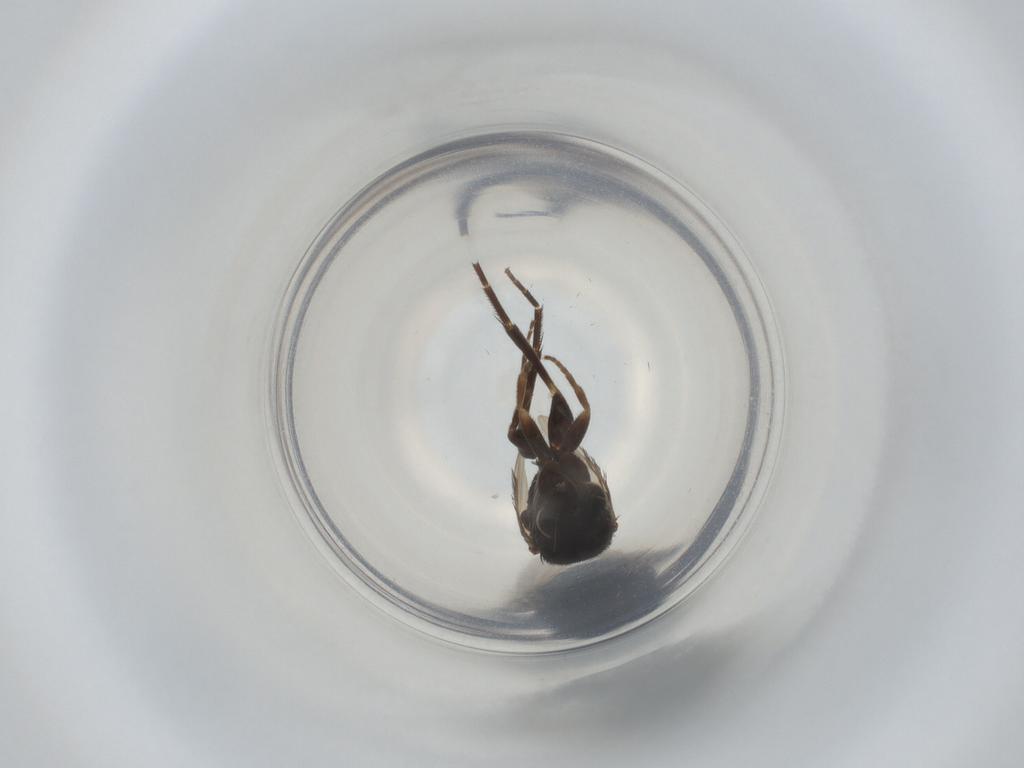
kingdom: Animalia
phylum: Arthropoda
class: Insecta
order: Diptera
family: Phoridae
